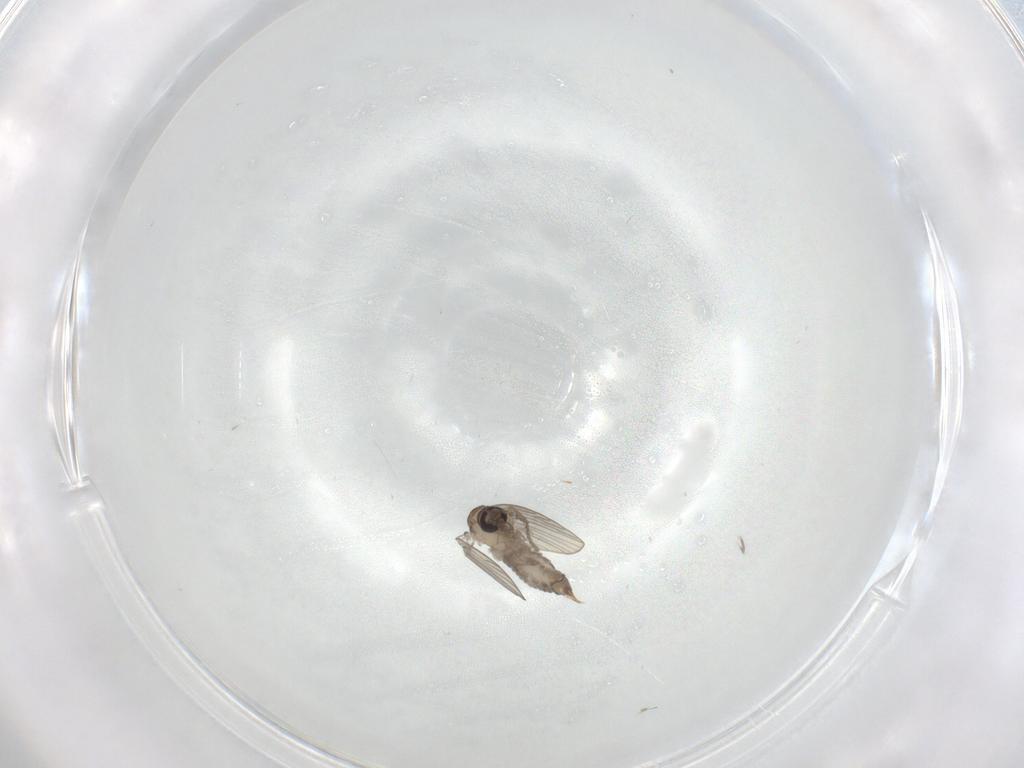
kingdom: Animalia
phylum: Arthropoda
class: Insecta
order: Diptera
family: Psychodidae
